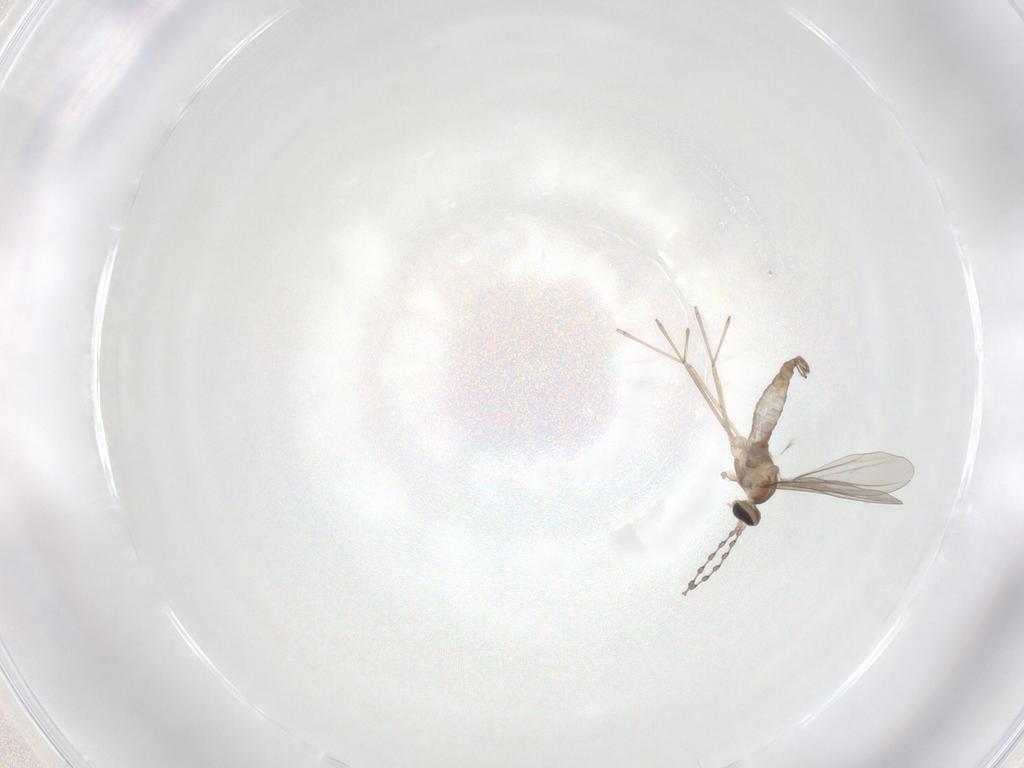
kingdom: Animalia
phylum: Arthropoda
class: Insecta
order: Diptera
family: Cecidomyiidae
